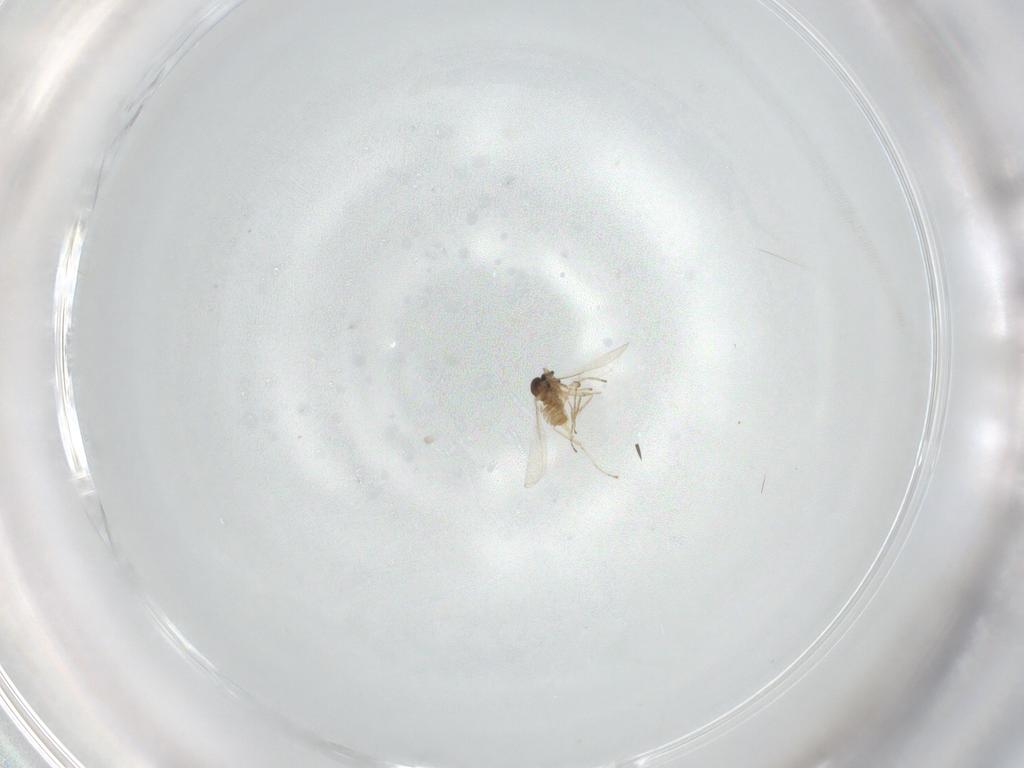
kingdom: Animalia
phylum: Arthropoda
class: Insecta
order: Diptera
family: Cecidomyiidae
